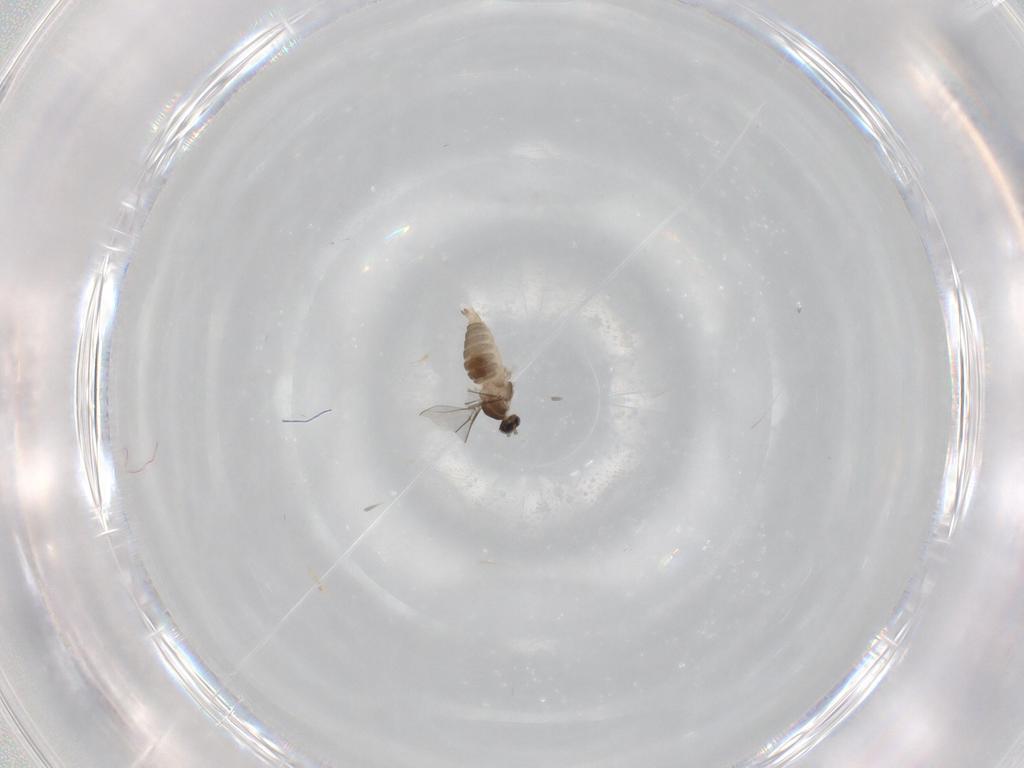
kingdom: Animalia
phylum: Arthropoda
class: Insecta
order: Diptera
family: Cecidomyiidae
